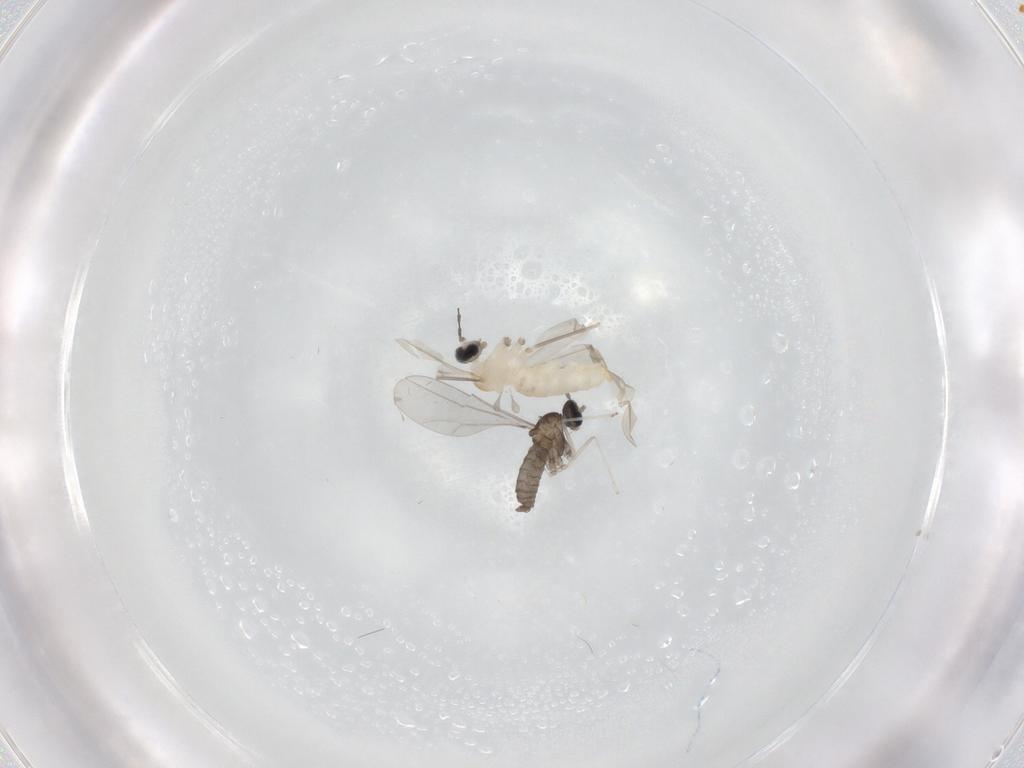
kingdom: Animalia
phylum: Arthropoda
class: Insecta
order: Diptera
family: Cecidomyiidae
